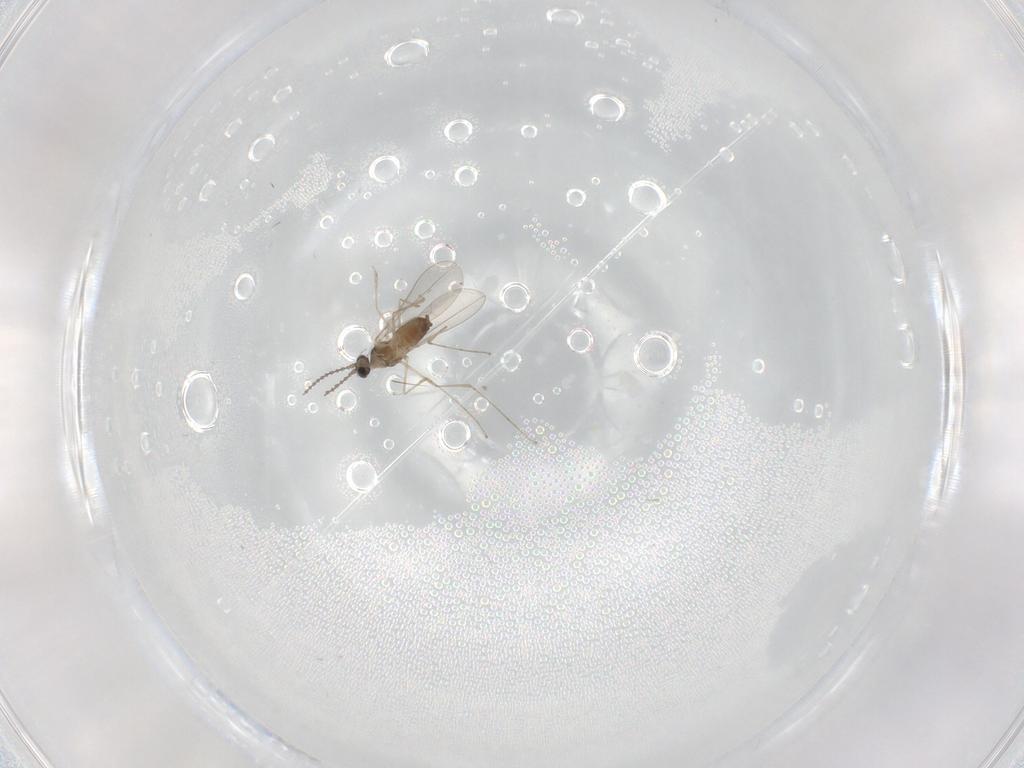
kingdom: Animalia
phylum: Arthropoda
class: Insecta
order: Diptera
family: Cecidomyiidae
